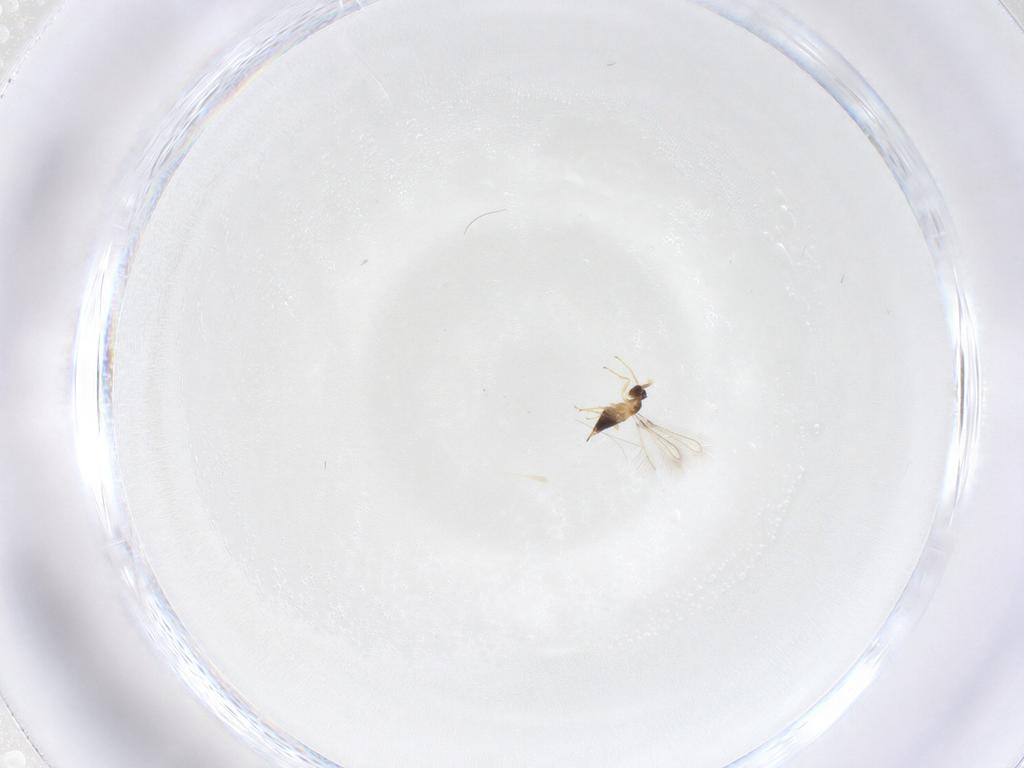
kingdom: Animalia
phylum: Arthropoda
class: Insecta
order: Hymenoptera
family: Mymaridae
